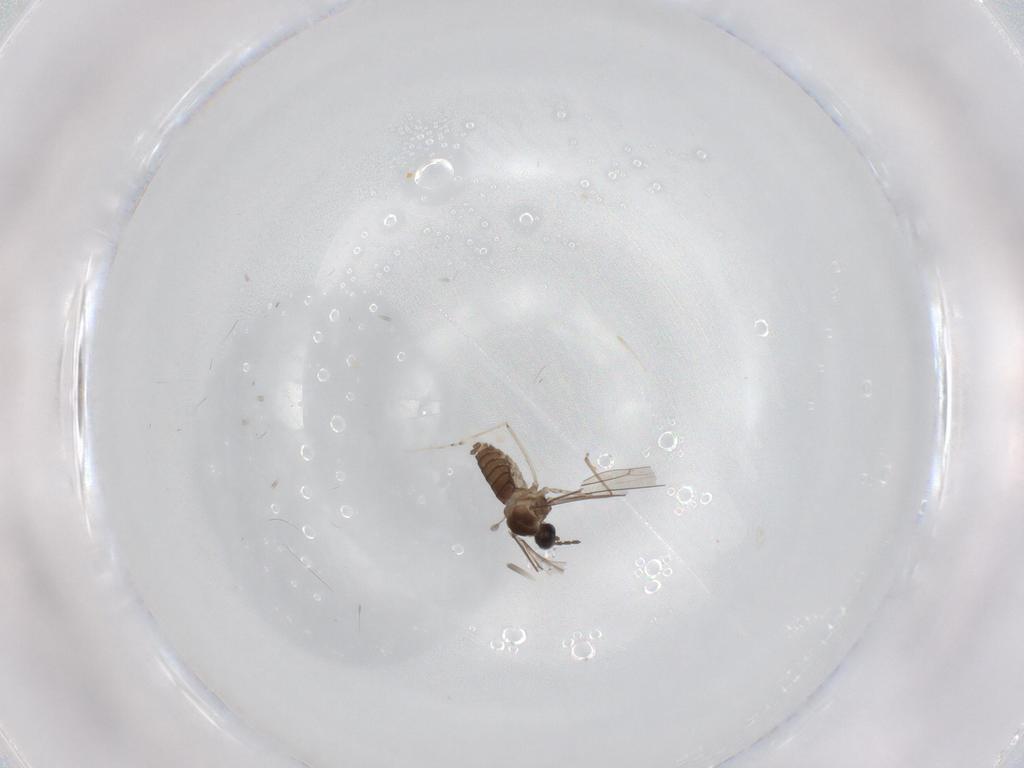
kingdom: Animalia
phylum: Arthropoda
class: Insecta
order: Diptera
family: Cecidomyiidae
